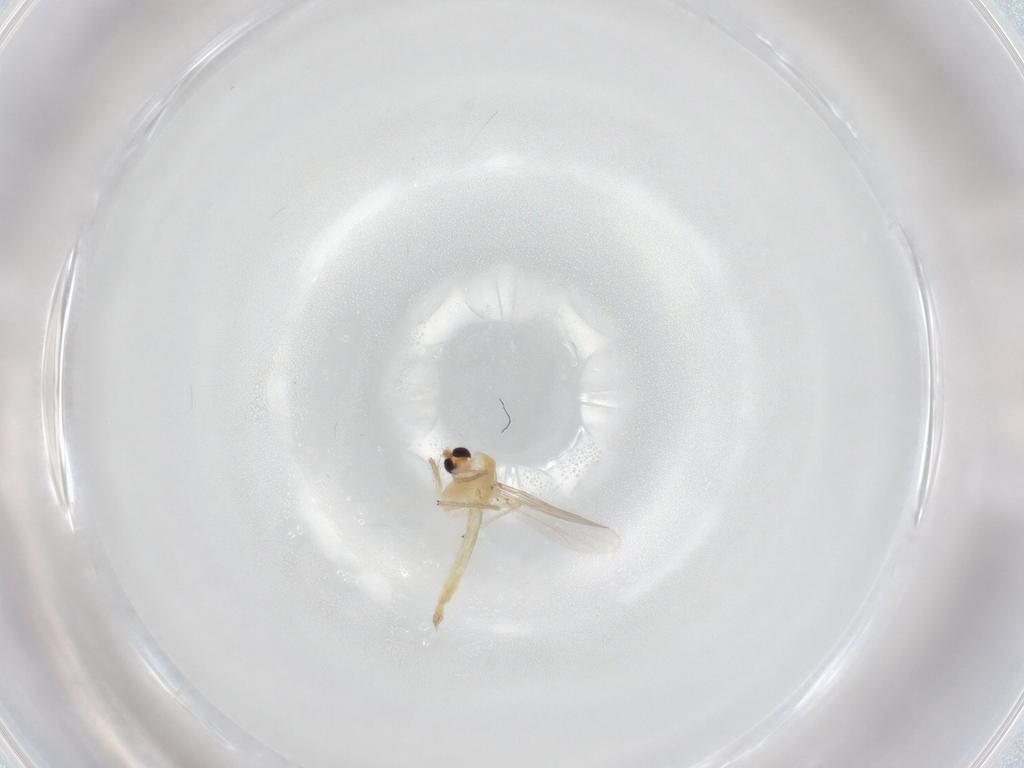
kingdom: Animalia
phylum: Arthropoda
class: Insecta
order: Diptera
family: Chironomidae
